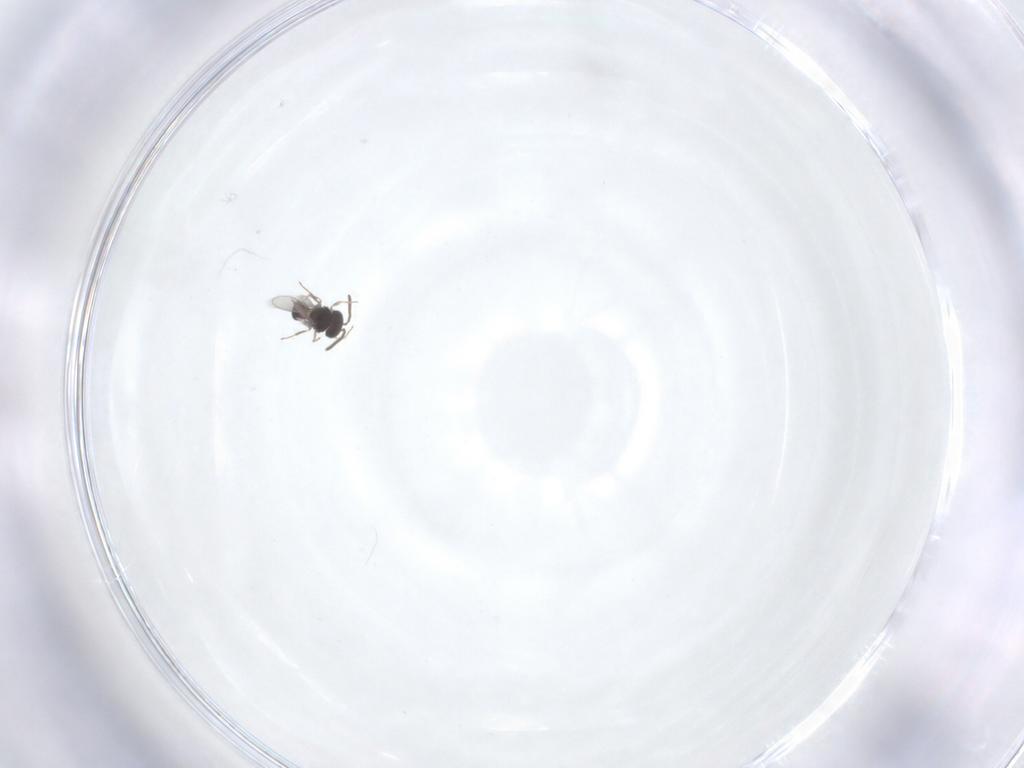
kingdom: Animalia
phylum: Arthropoda
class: Insecta
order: Hymenoptera
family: Scelionidae
